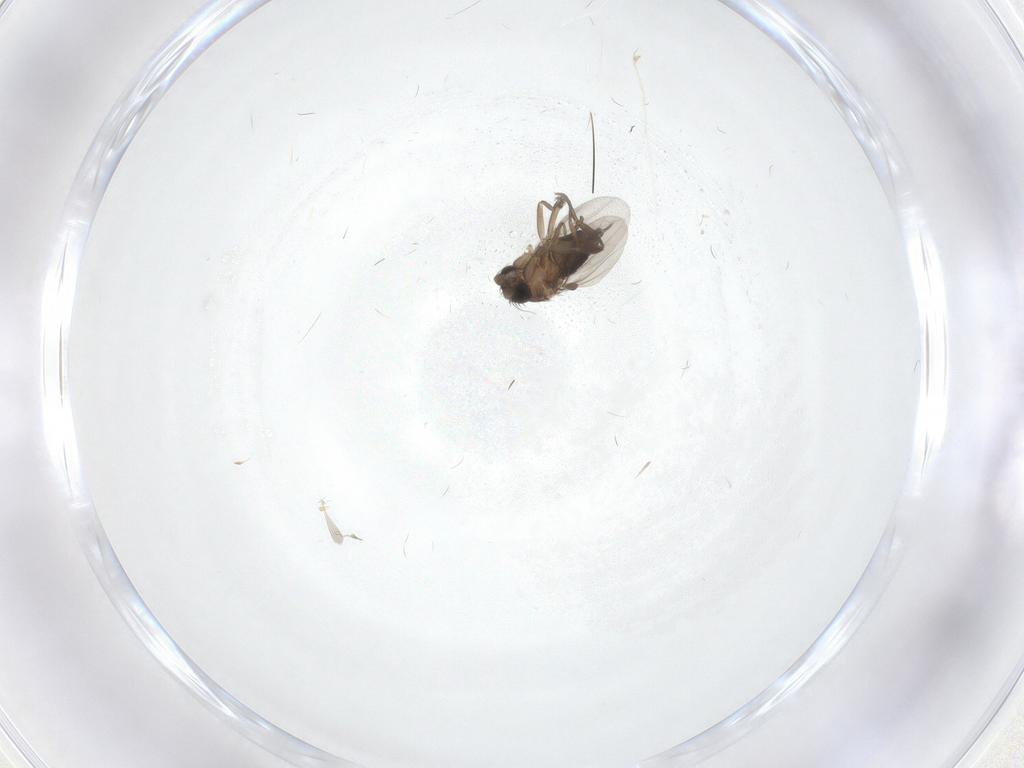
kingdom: Animalia
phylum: Arthropoda
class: Insecta
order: Diptera
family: Phoridae
